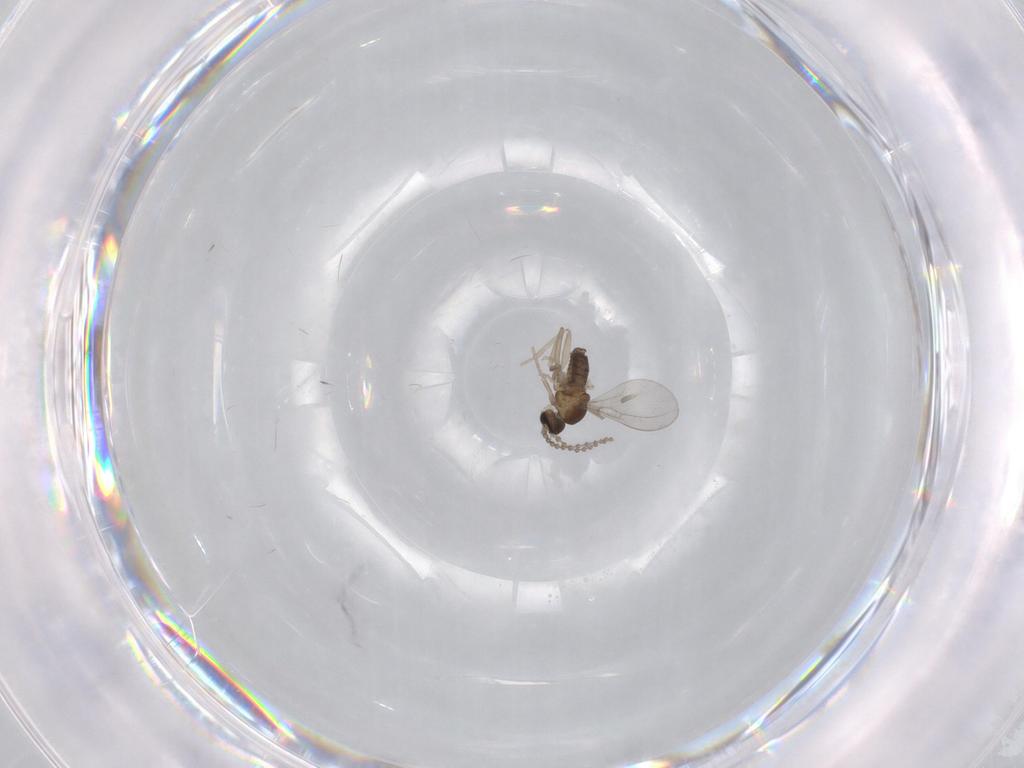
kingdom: Animalia
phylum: Arthropoda
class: Insecta
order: Diptera
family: Cecidomyiidae
